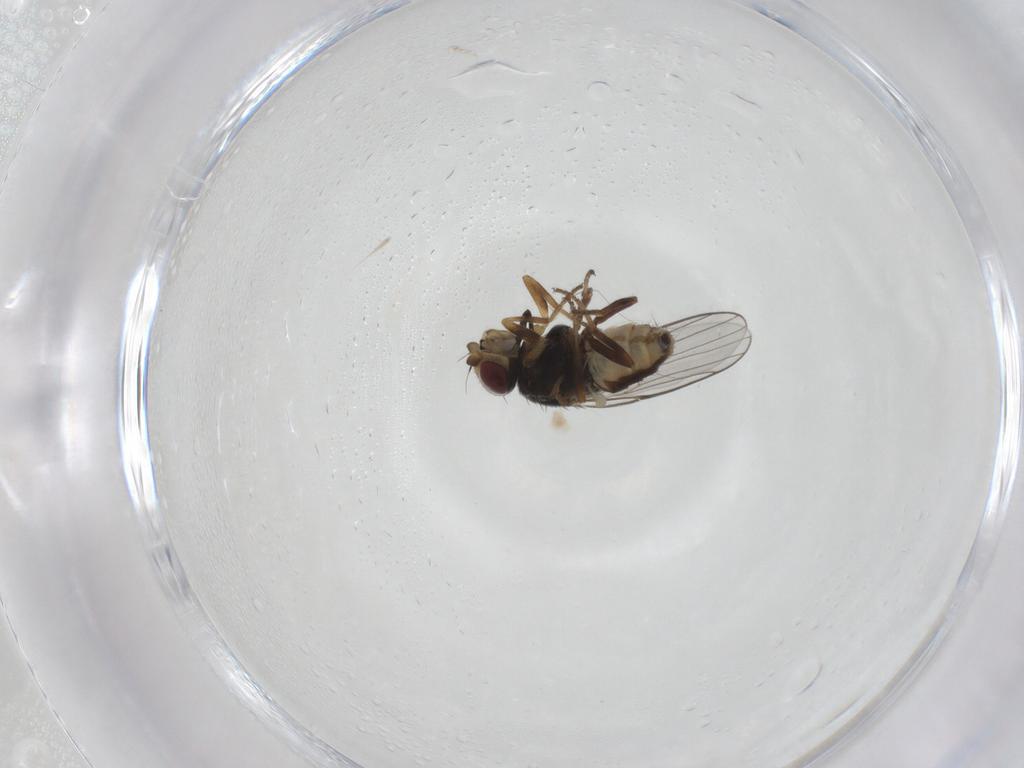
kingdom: Animalia
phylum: Arthropoda
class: Insecta
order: Diptera
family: Chloropidae
